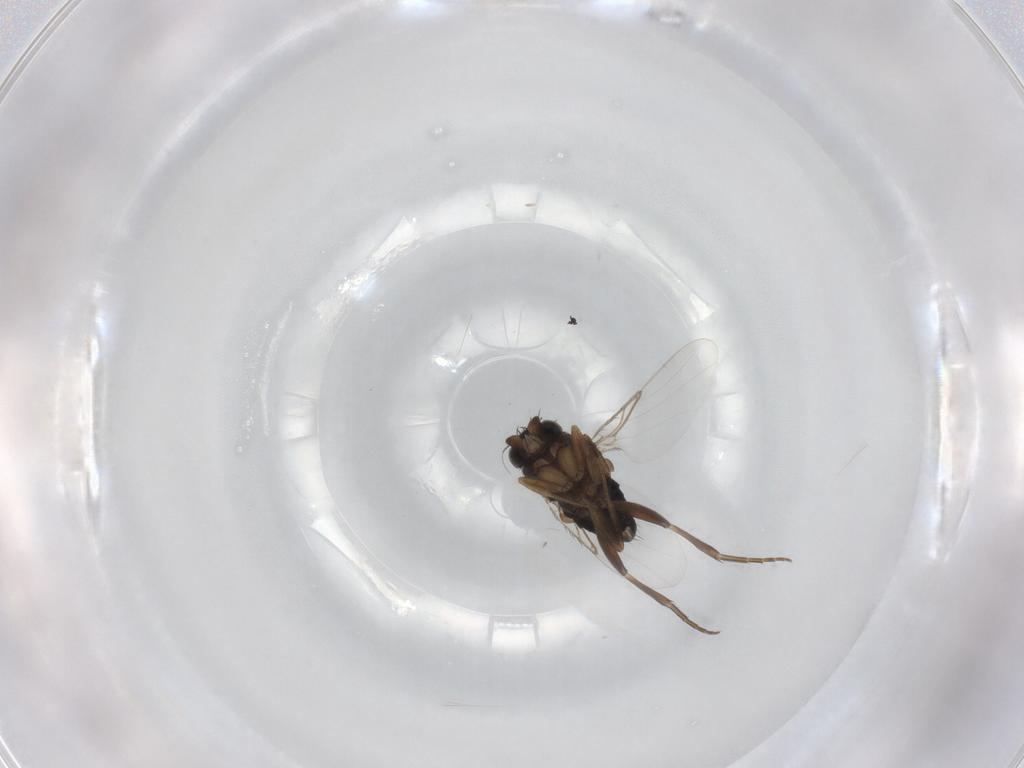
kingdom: Animalia
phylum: Arthropoda
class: Insecta
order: Diptera
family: Phoridae
